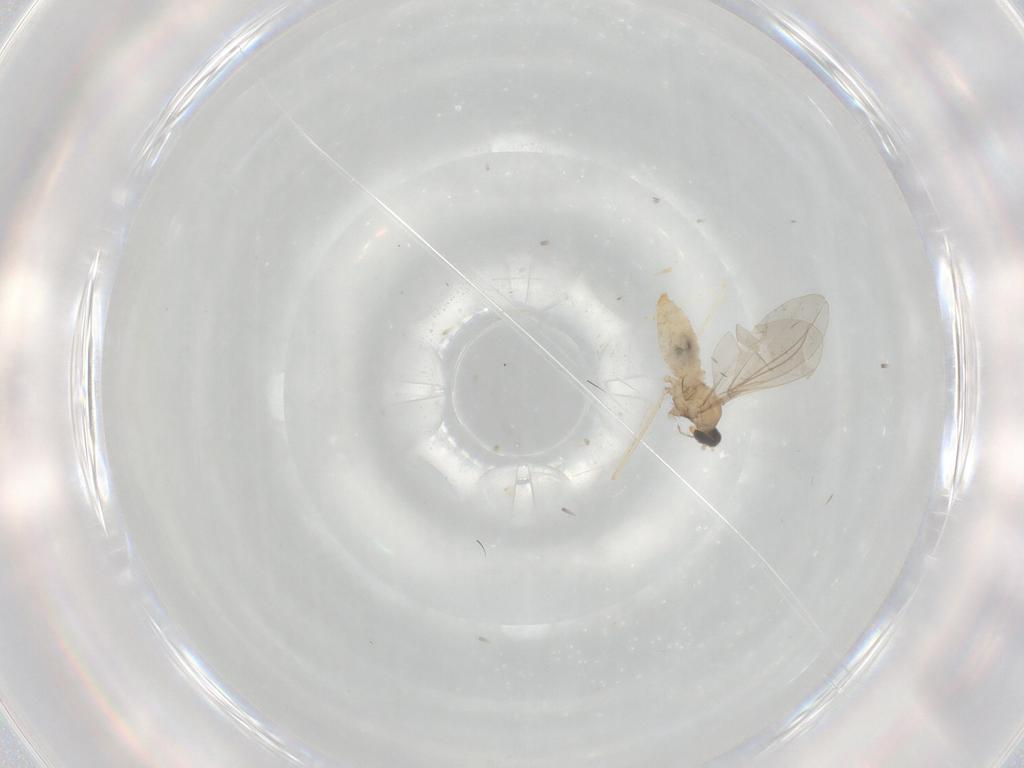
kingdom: Animalia
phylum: Arthropoda
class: Insecta
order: Diptera
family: Cecidomyiidae
